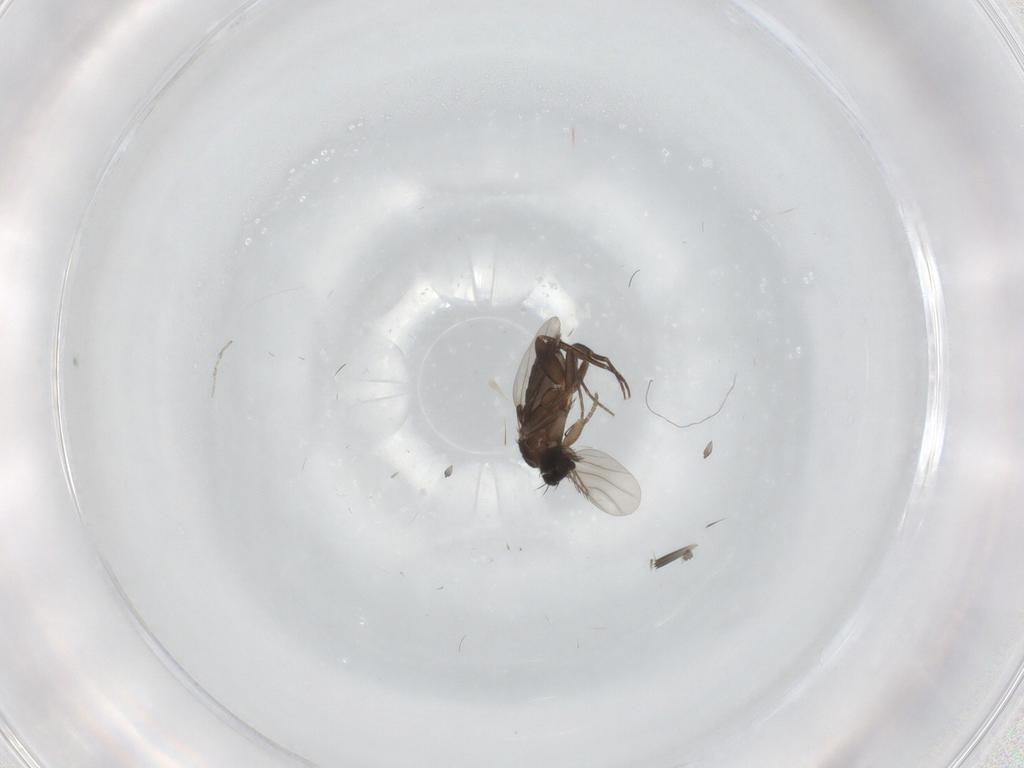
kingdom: Animalia
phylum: Arthropoda
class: Insecta
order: Diptera
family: Phoridae
